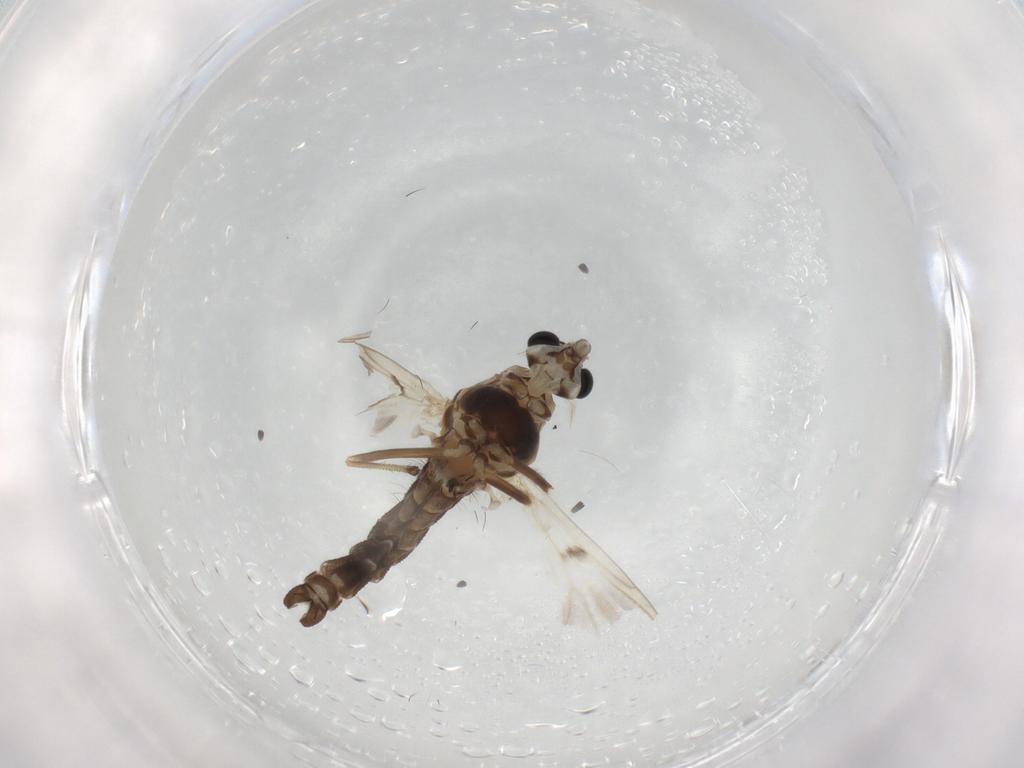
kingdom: Animalia
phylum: Arthropoda
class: Insecta
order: Diptera
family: Chironomidae
